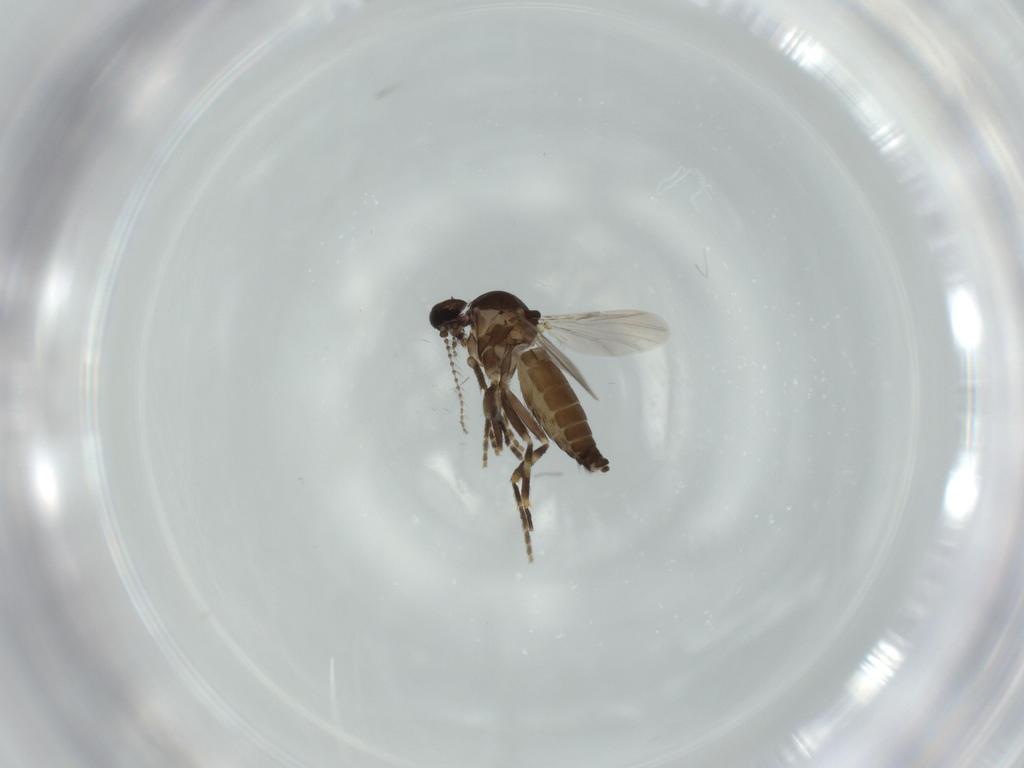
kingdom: Animalia
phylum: Arthropoda
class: Insecta
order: Diptera
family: Ceratopogonidae
